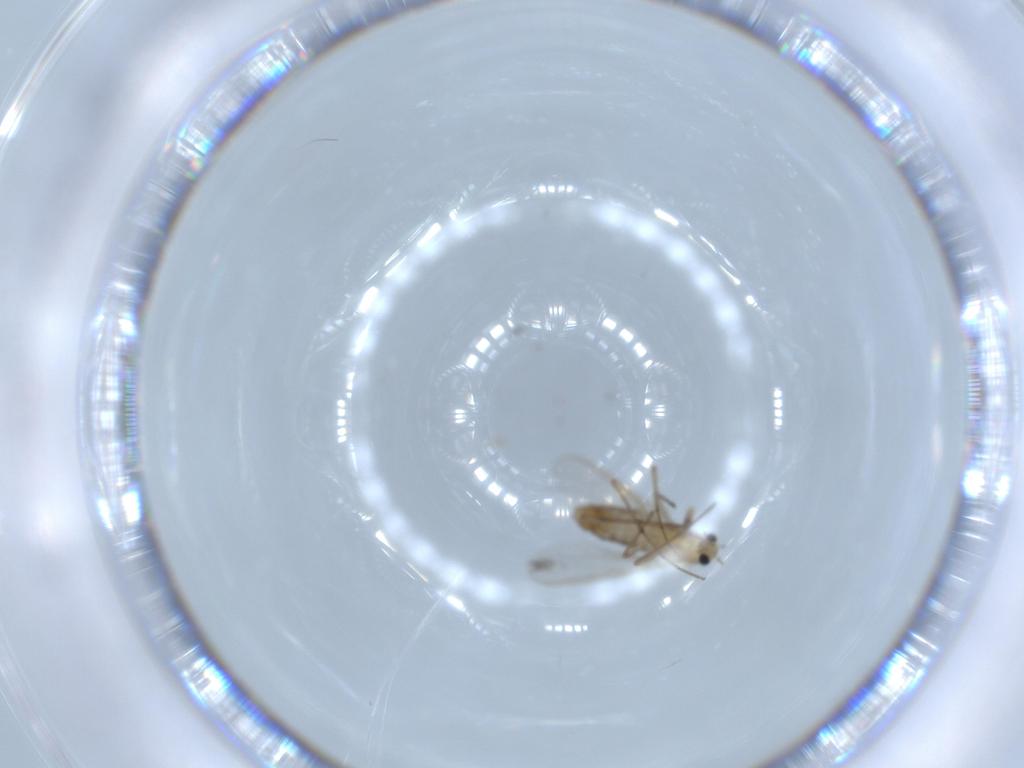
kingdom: Animalia
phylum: Arthropoda
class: Insecta
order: Diptera
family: Chironomidae
